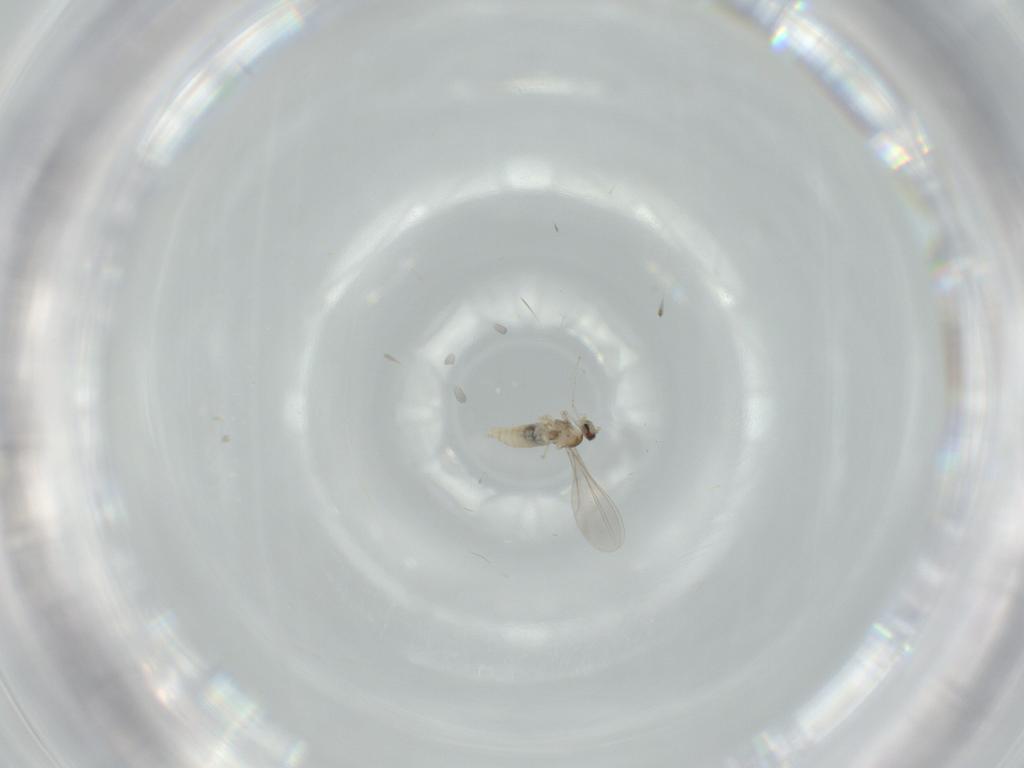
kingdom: Animalia
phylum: Arthropoda
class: Insecta
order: Diptera
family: Cecidomyiidae
